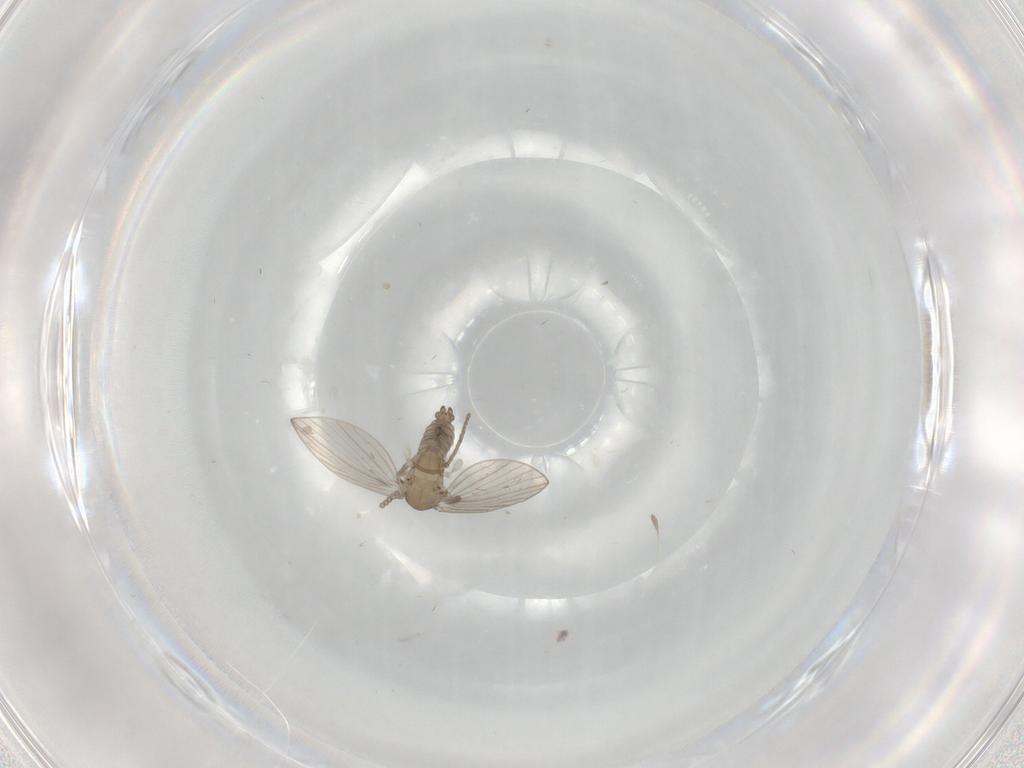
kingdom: Animalia
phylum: Arthropoda
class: Insecta
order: Diptera
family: Psychodidae
